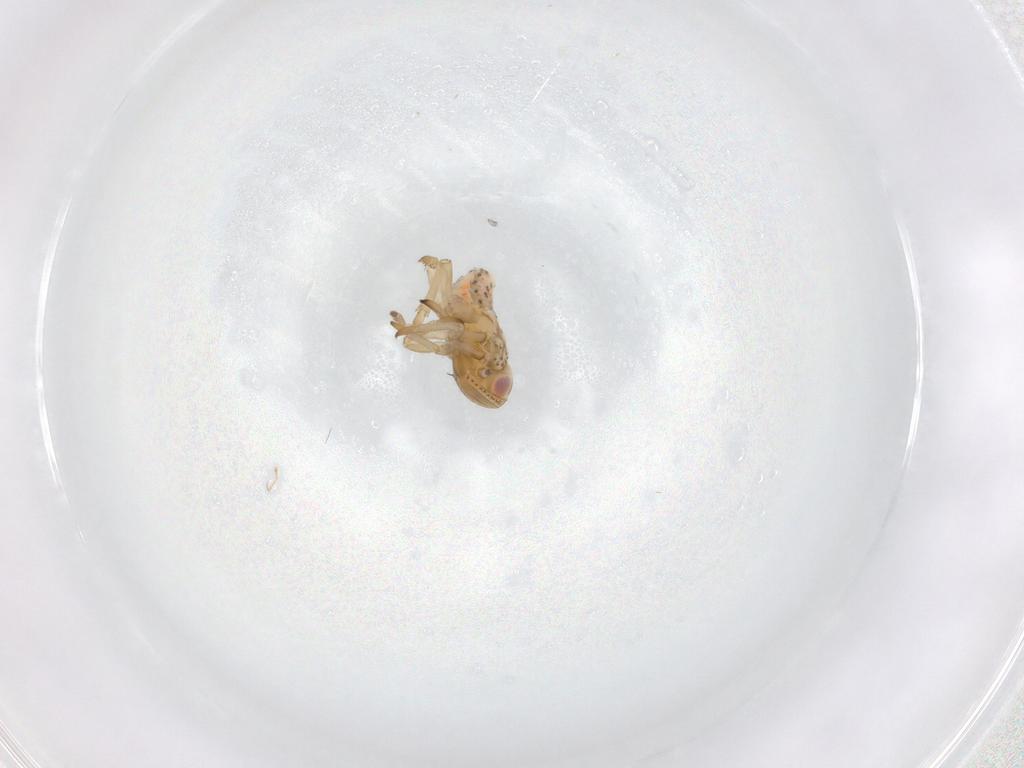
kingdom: Animalia
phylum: Arthropoda
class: Insecta
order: Hemiptera
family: Tropiduchidae
